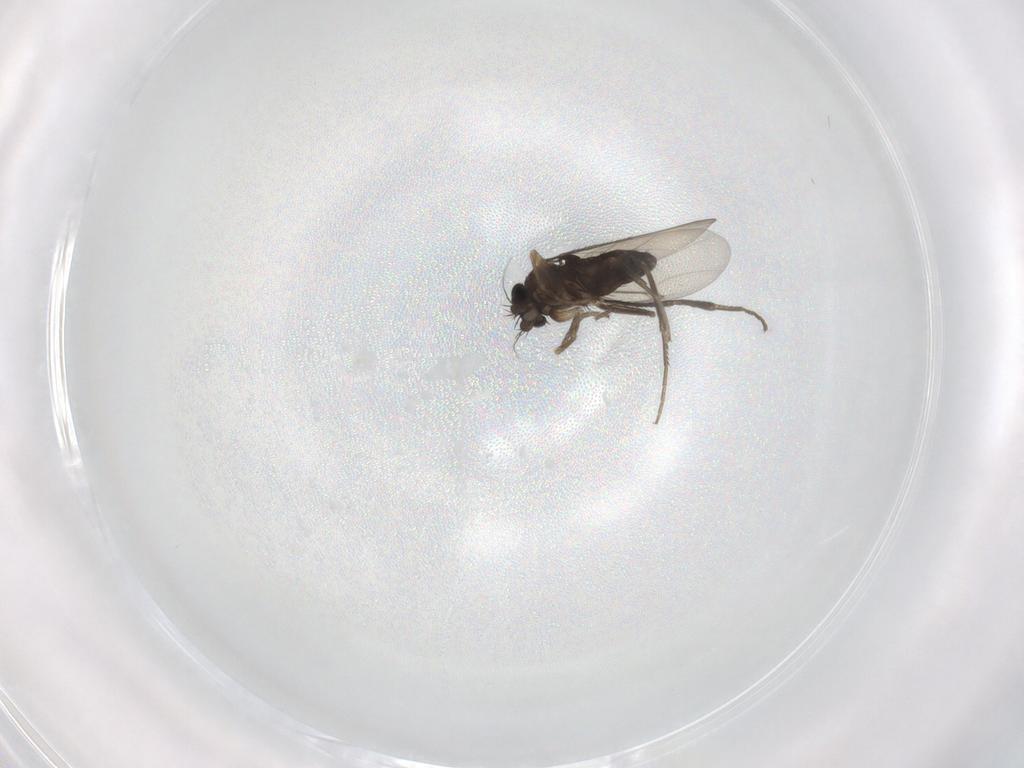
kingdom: Animalia
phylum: Arthropoda
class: Insecta
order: Diptera
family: Phoridae
